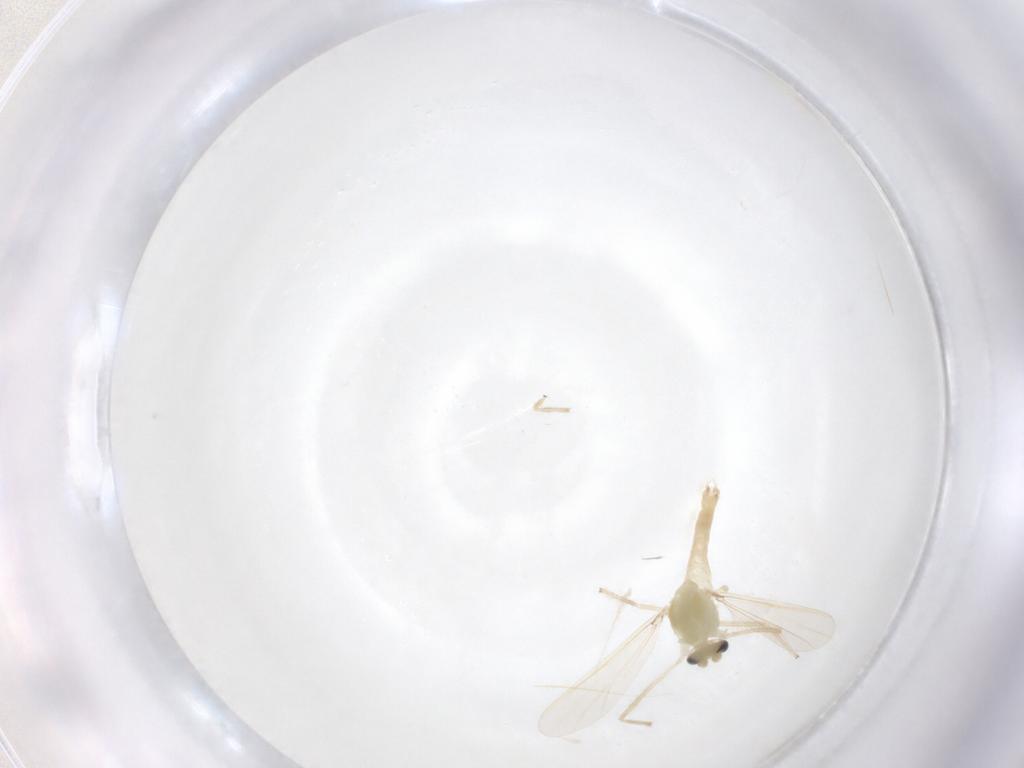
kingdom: Animalia
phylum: Arthropoda
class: Insecta
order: Diptera
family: Chironomidae
